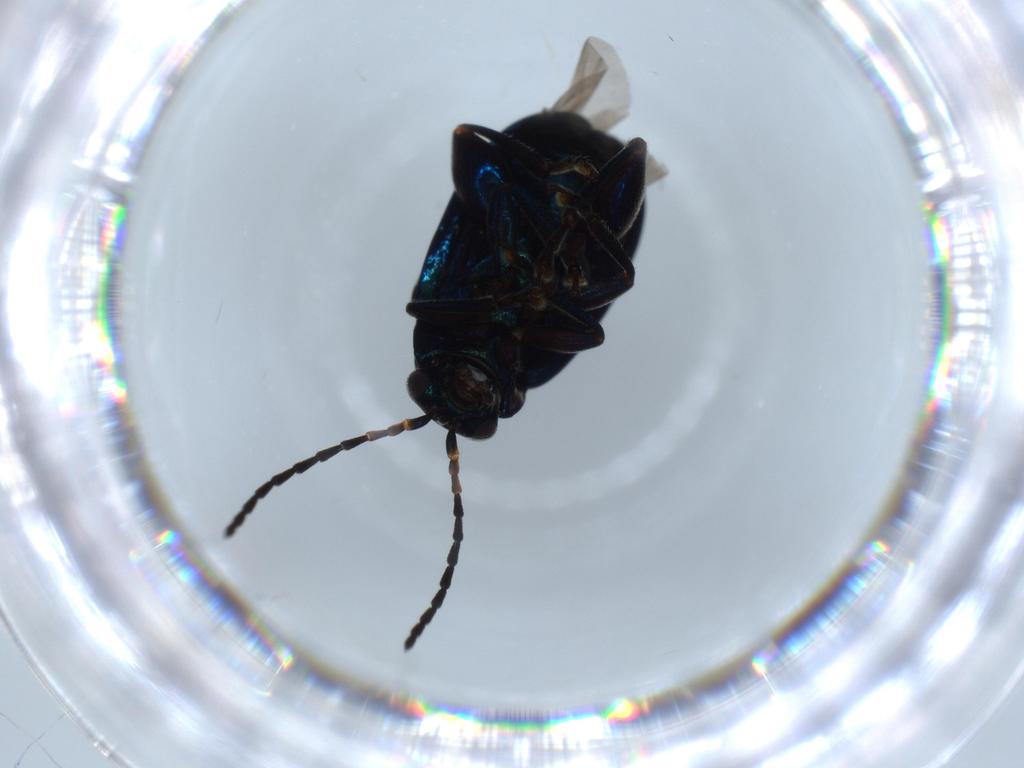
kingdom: Animalia
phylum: Arthropoda
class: Insecta
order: Coleoptera
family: Chrysomelidae
